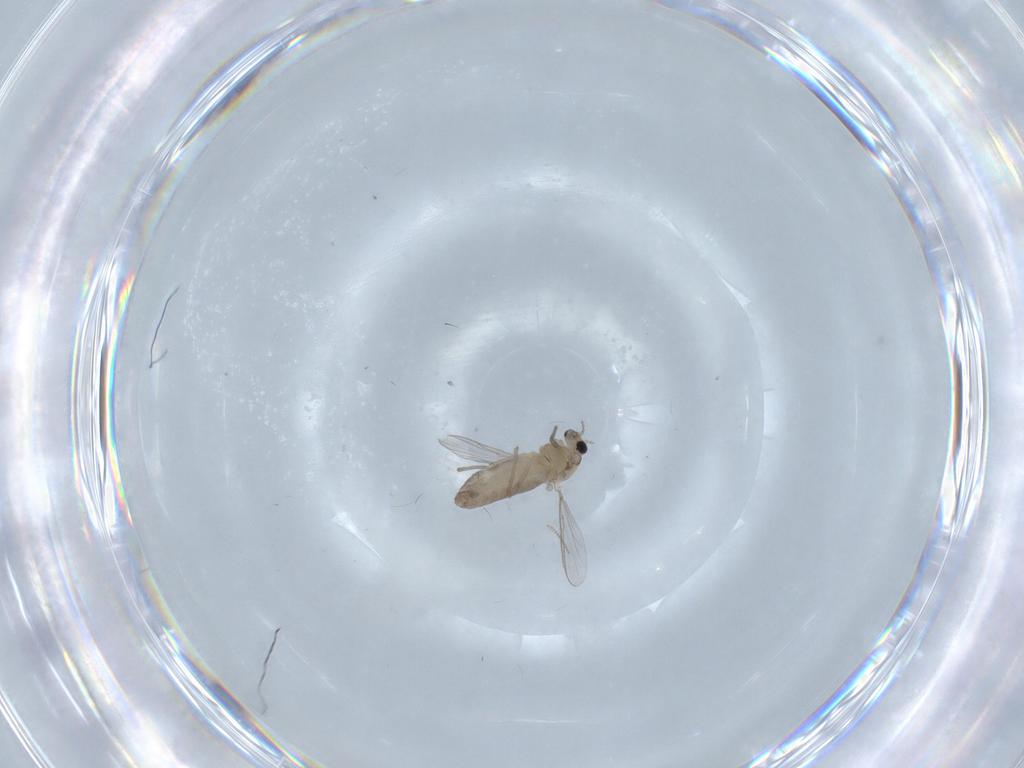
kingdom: Animalia
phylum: Arthropoda
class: Insecta
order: Diptera
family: Chironomidae
